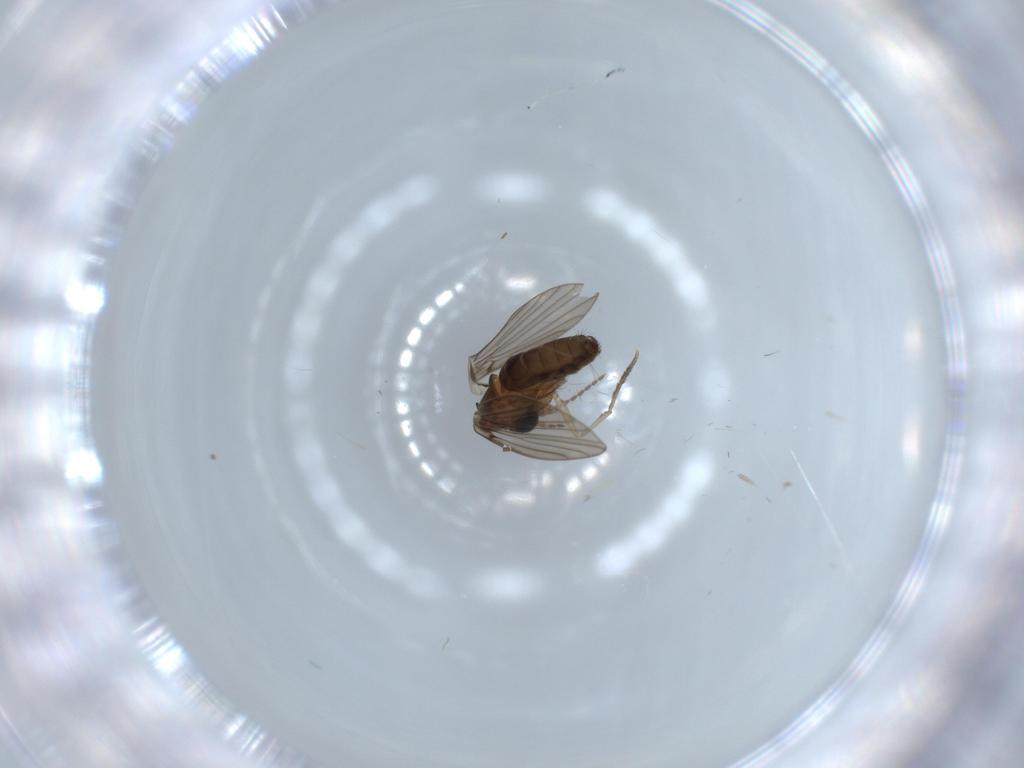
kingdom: Animalia
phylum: Arthropoda
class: Insecta
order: Diptera
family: Psychodidae
